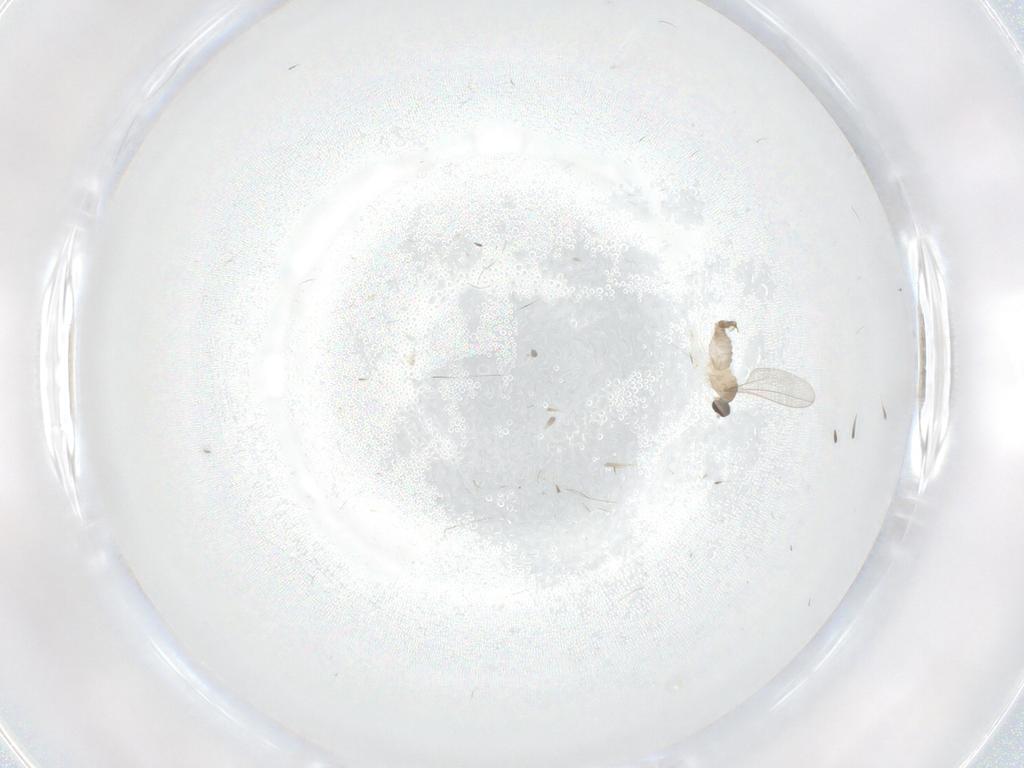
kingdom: Animalia
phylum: Arthropoda
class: Insecta
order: Diptera
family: Cecidomyiidae
